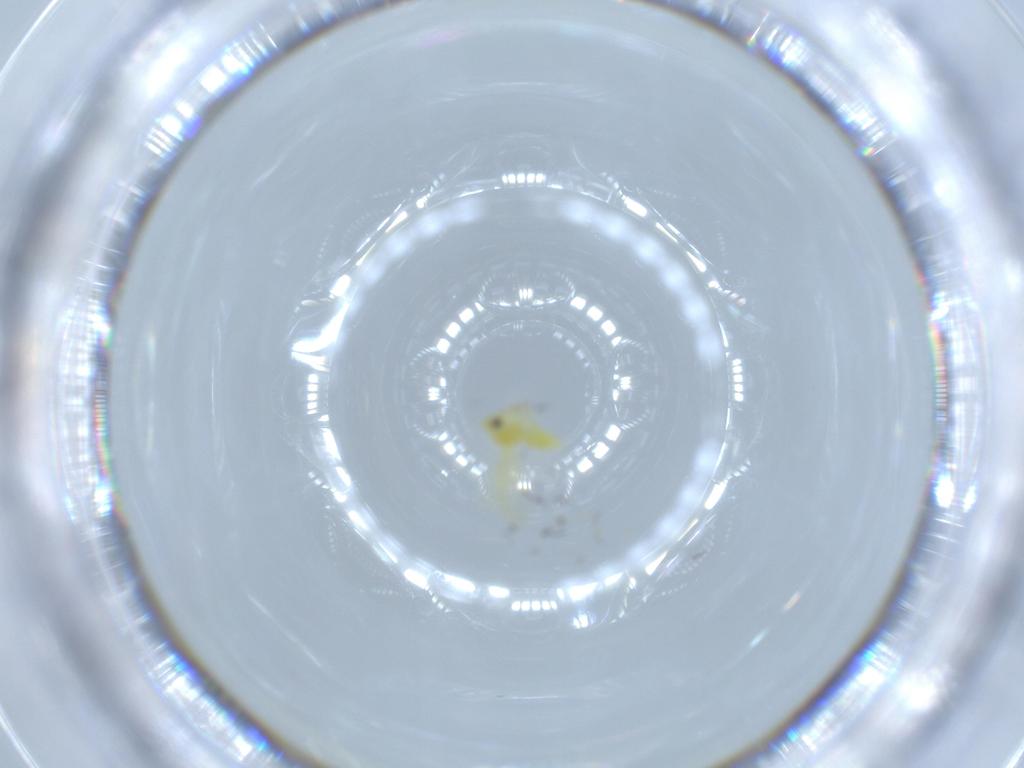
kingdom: Animalia
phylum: Arthropoda
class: Insecta
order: Hemiptera
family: Aleyrodidae
